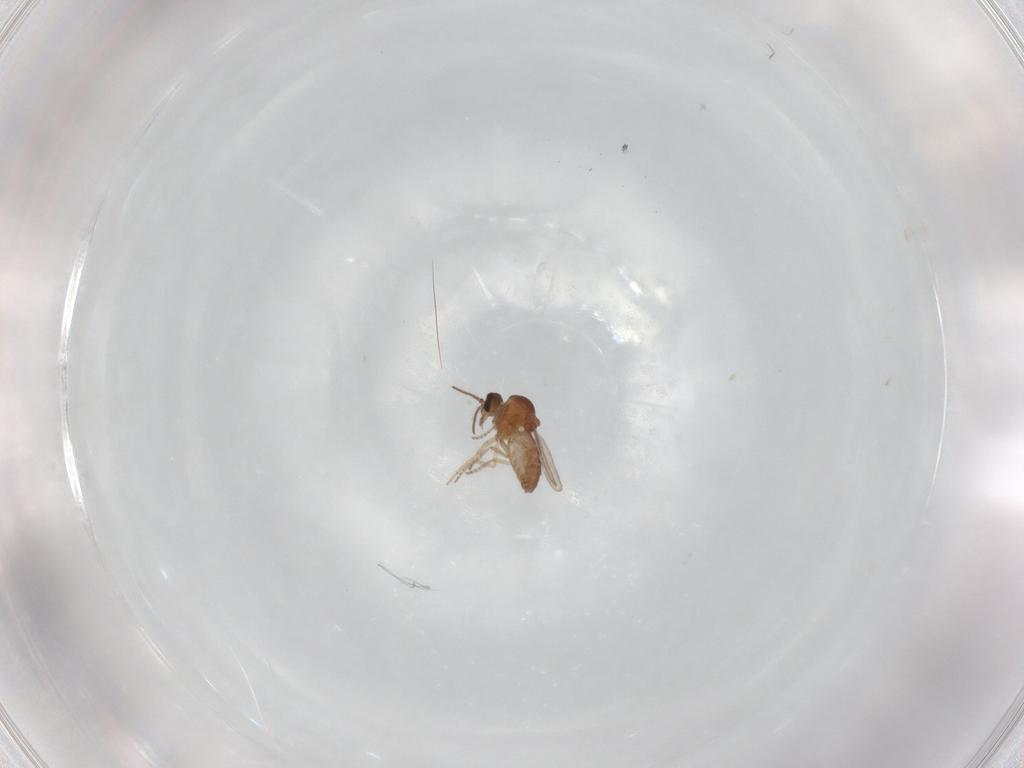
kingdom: Animalia
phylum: Arthropoda
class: Insecta
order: Diptera
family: Ceratopogonidae
